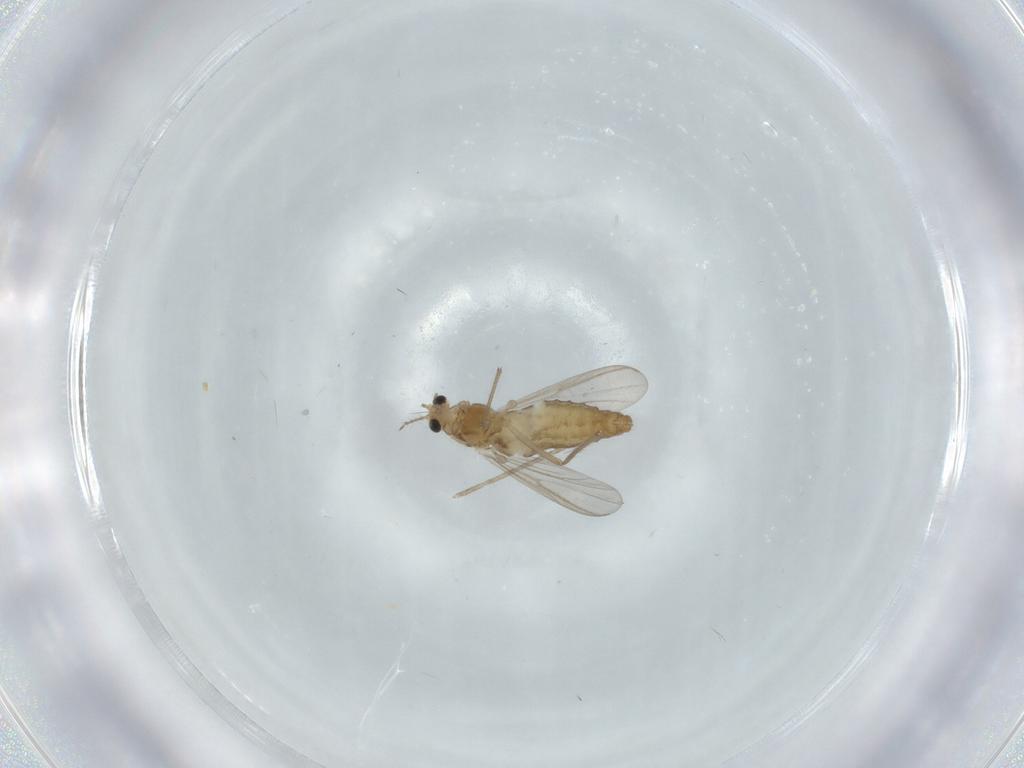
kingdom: Animalia
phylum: Arthropoda
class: Insecta
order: Diptera
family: Chironomidae
